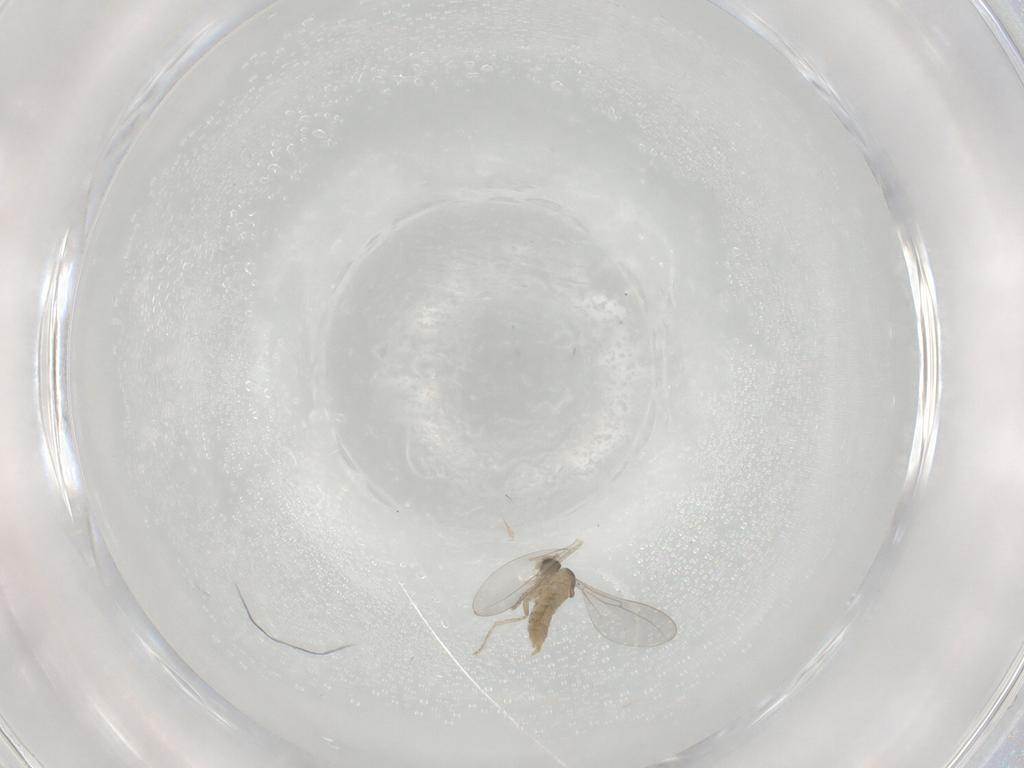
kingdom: Animalia
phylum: Arthropoda
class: Insecta
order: Diptera
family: Cecidomyiidae
